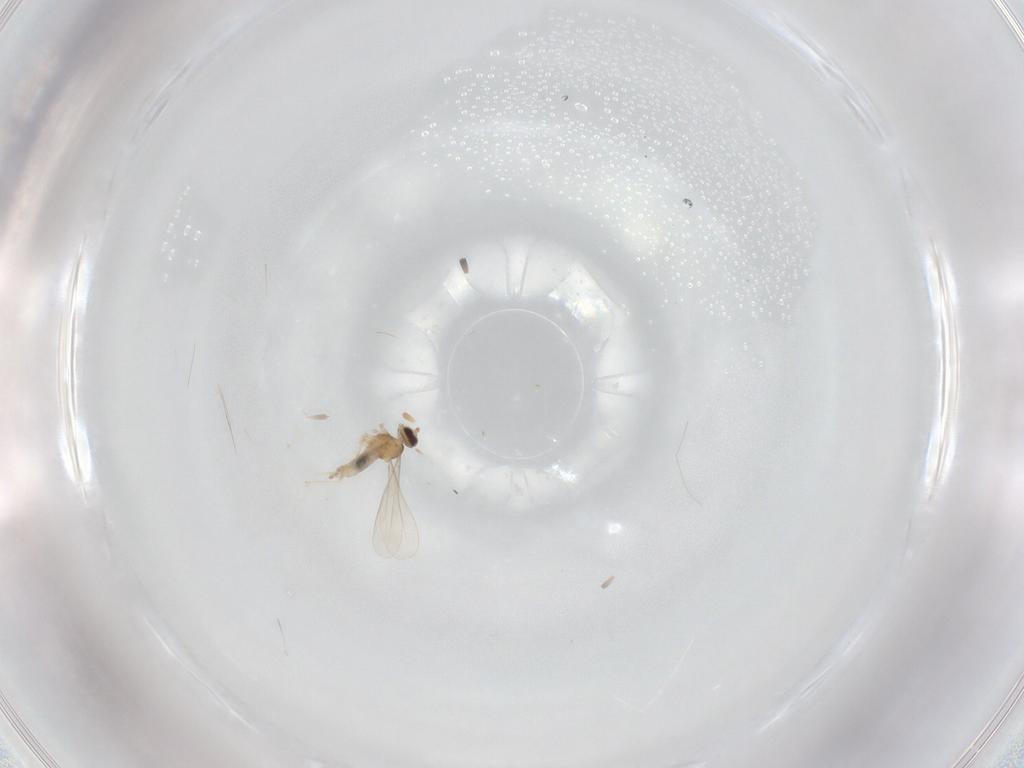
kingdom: Animalia
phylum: Arthropoda
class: Insecta
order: Diptera
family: Cecidomyiidae
